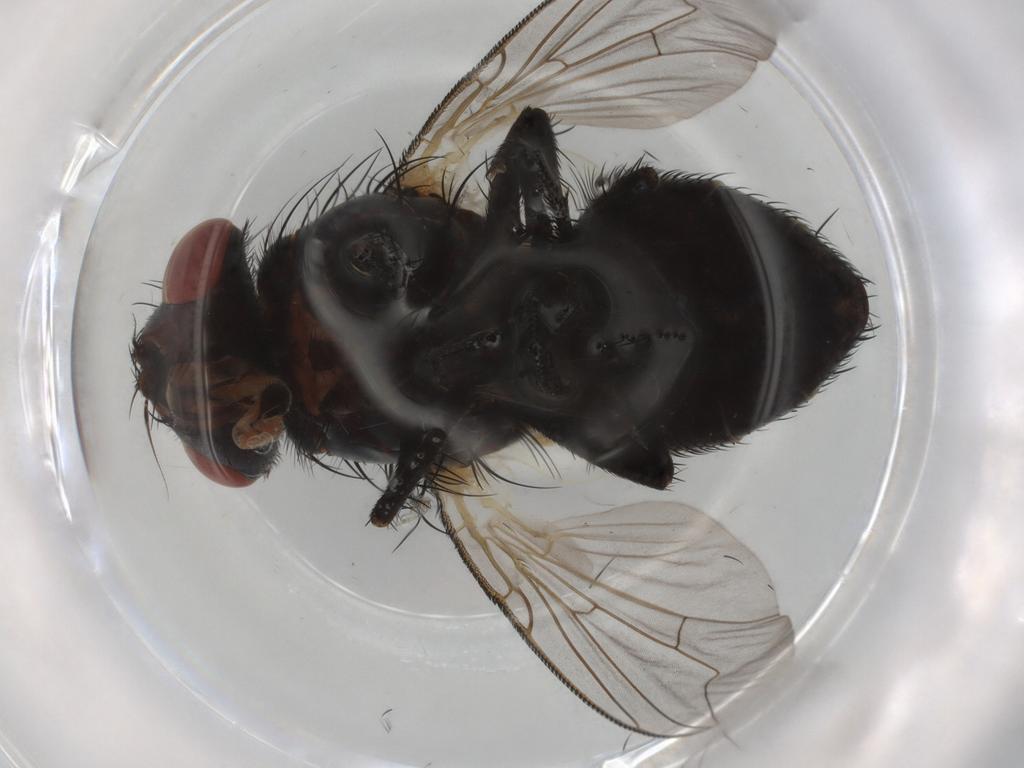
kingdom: Animalia
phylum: Arthropoda
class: Insecta
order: Diptera
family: Sarcophagidae
